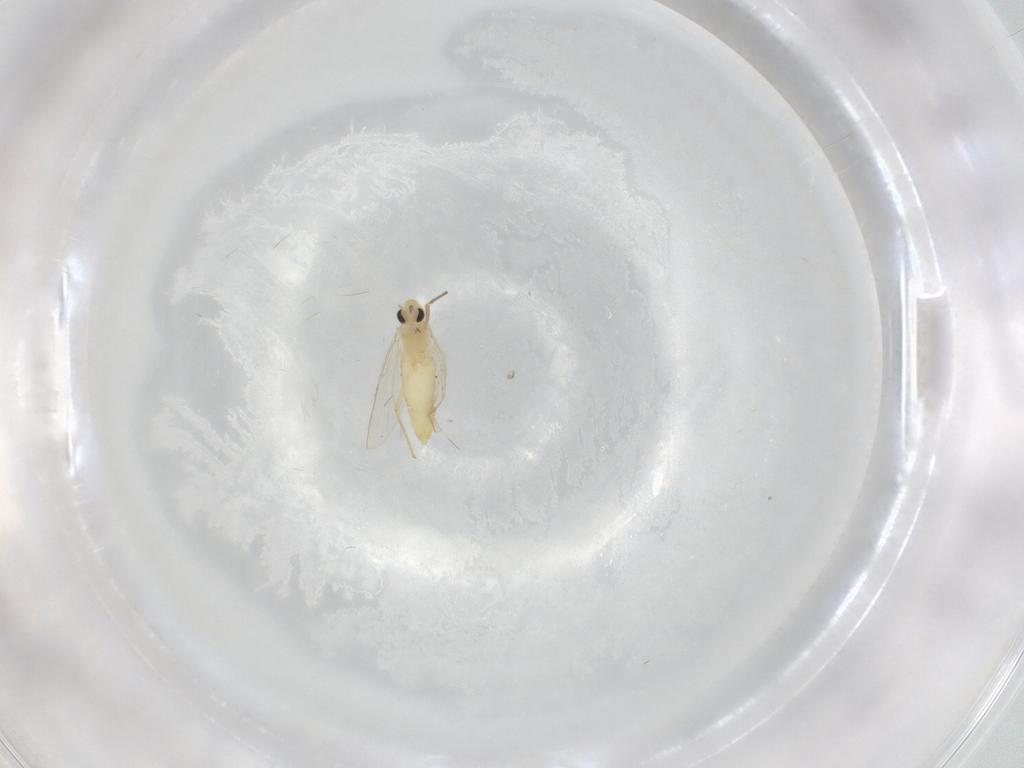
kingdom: Animalia
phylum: Arthropoda
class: Insecta
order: Diptera
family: Chironomidae
